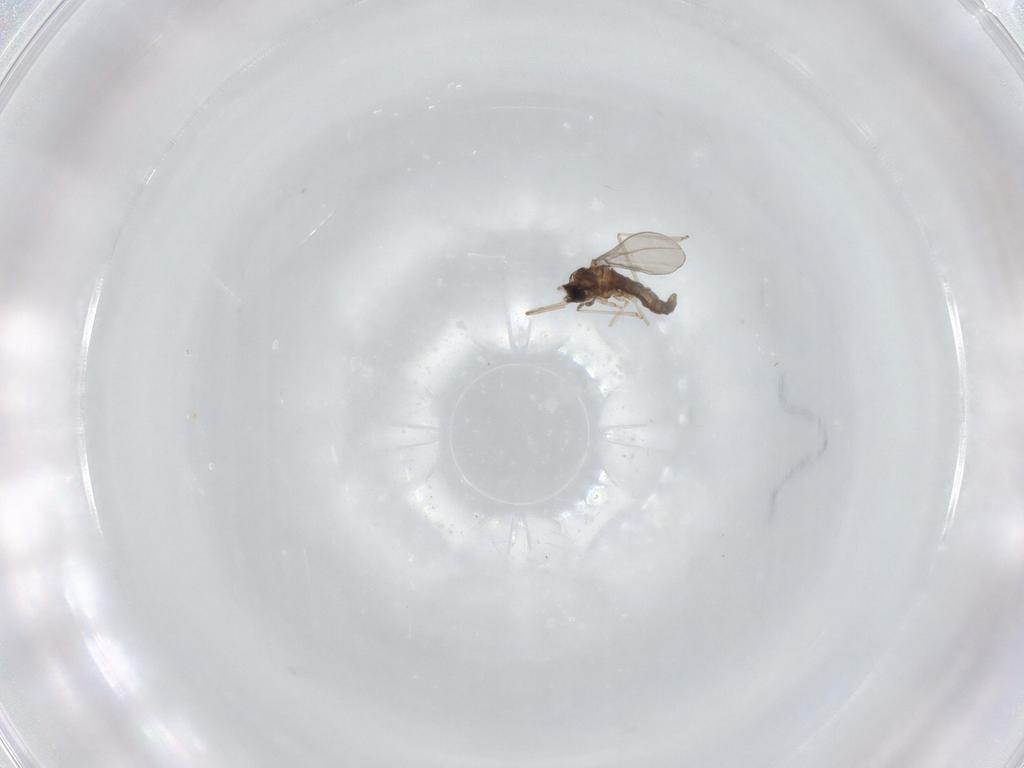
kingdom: Animalia
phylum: Arthropoda
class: Insecta
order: Diptera
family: Cecidomyiidae
